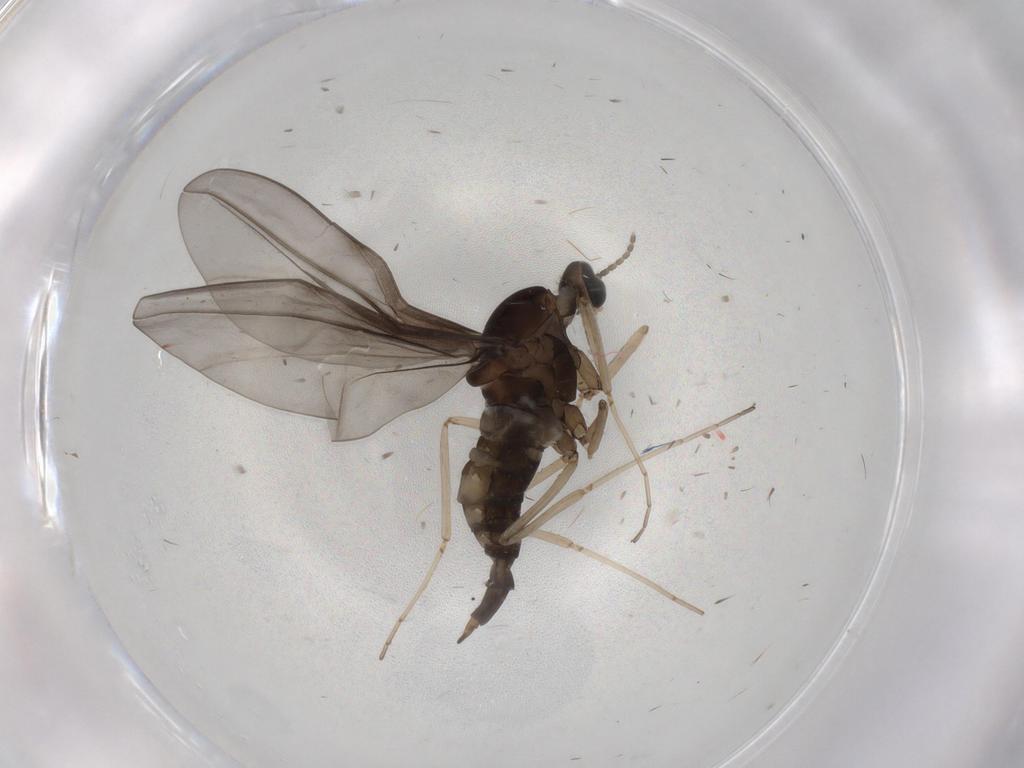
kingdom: Animalia
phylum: Arthropoda
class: Insecta
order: Diptera
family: Cecidomyiidae
